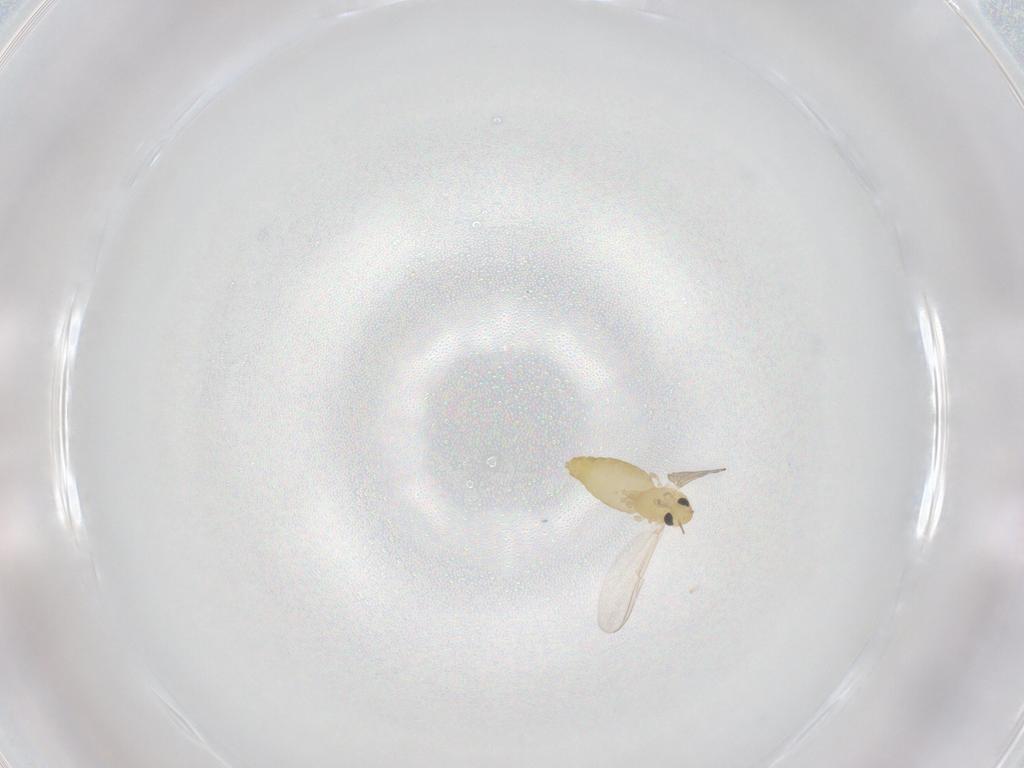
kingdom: Animalia
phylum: Arthropoda
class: Insecta
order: Diptera
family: Chironomidae
